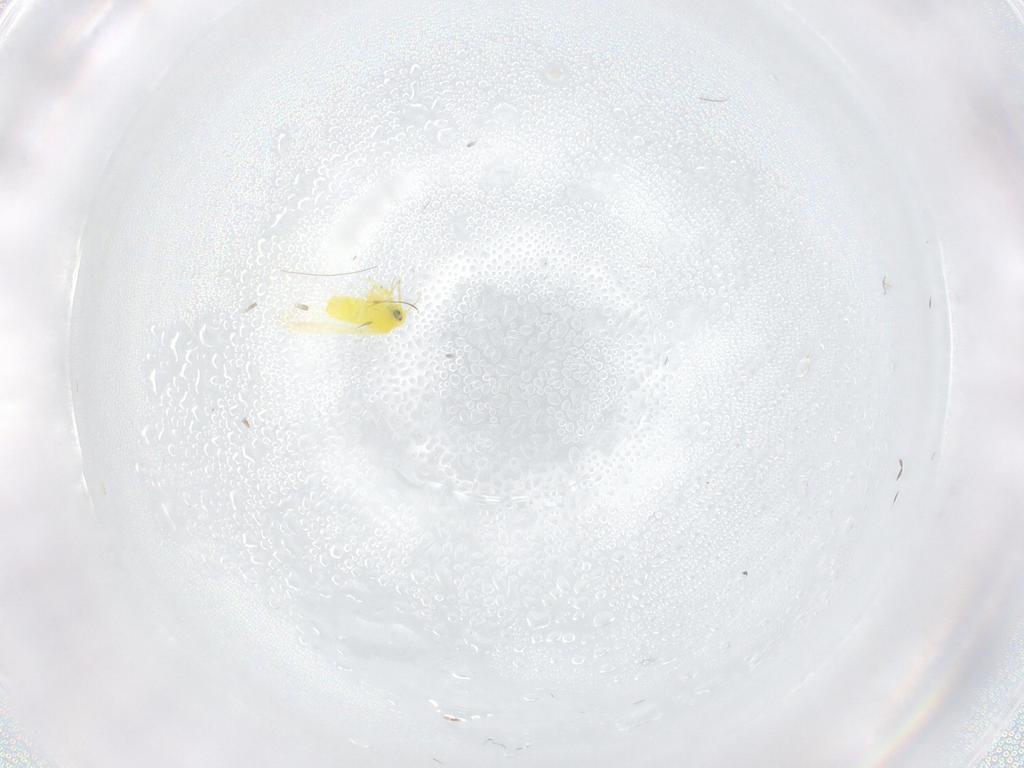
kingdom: Animalia
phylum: Arthropoda
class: Insecta
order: Hemiptera
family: Aleyrodidae
